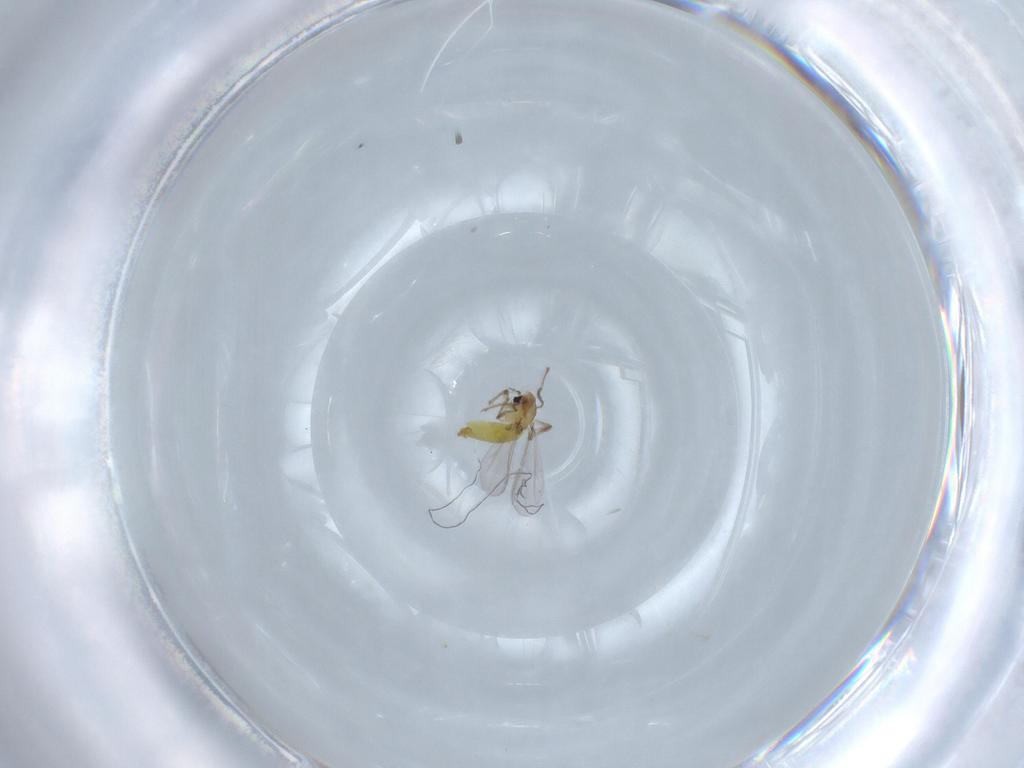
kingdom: Animalia
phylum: Arthropoda
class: Insecta
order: Diptera
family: Chironomidae
